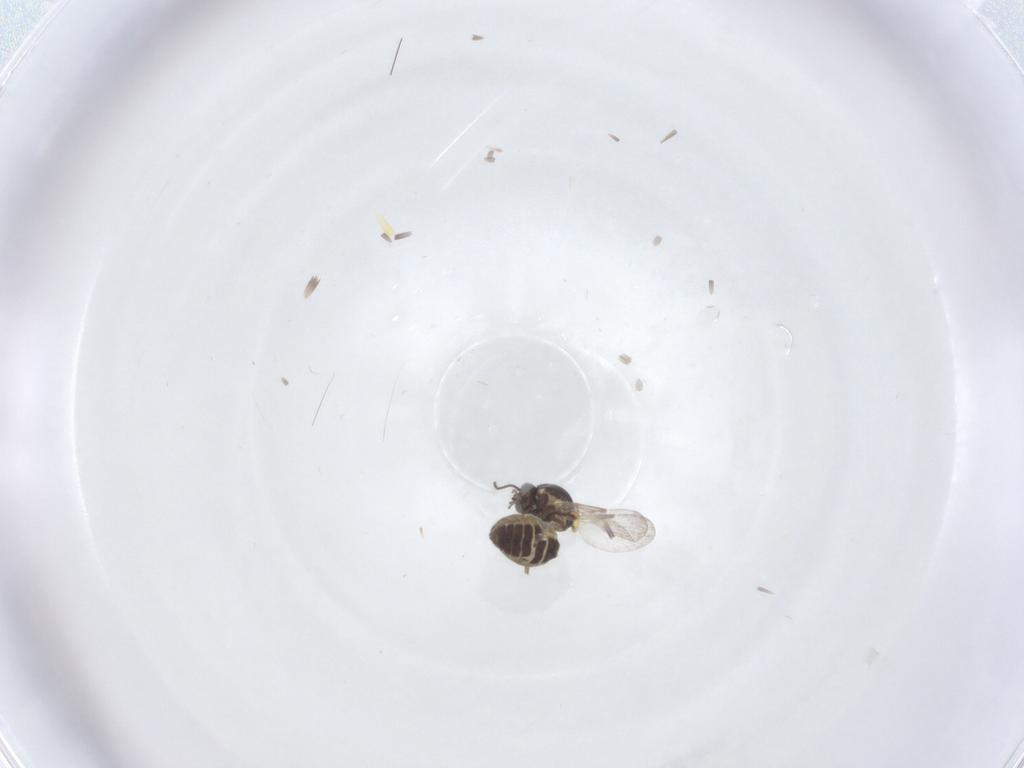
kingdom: Animalia
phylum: Arthropoda
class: Insecta
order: Diptera
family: Ceratopogonidae
